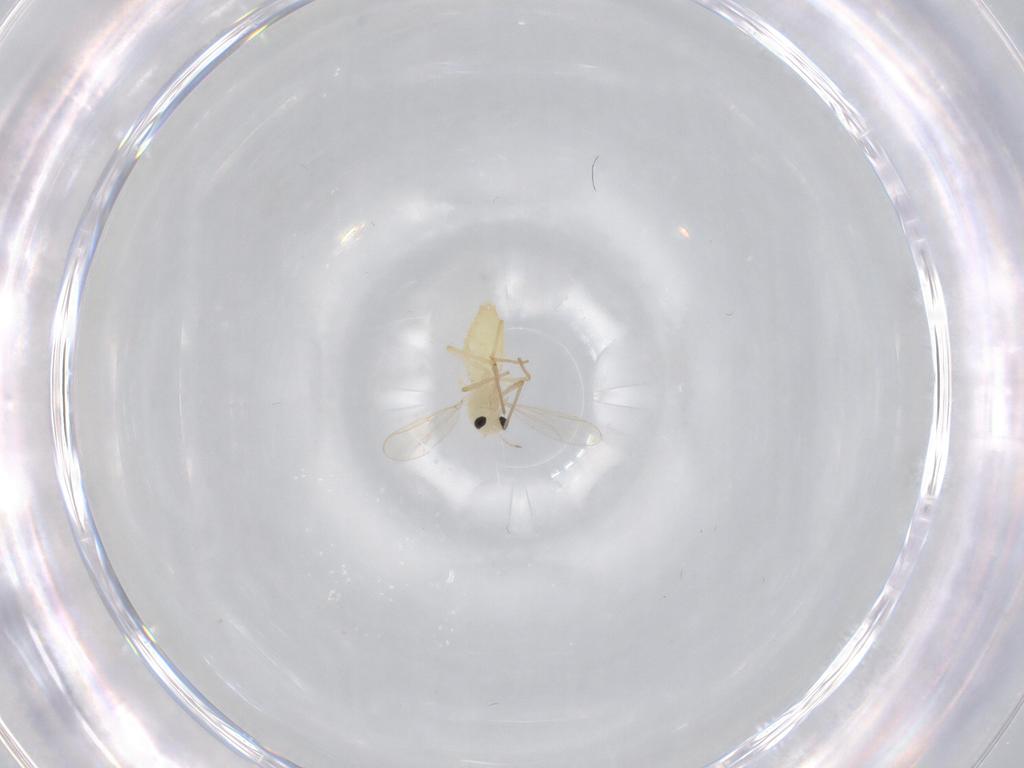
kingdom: Animalia
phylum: Arthropoda
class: Insecta
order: Diptera
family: Chironomidae
